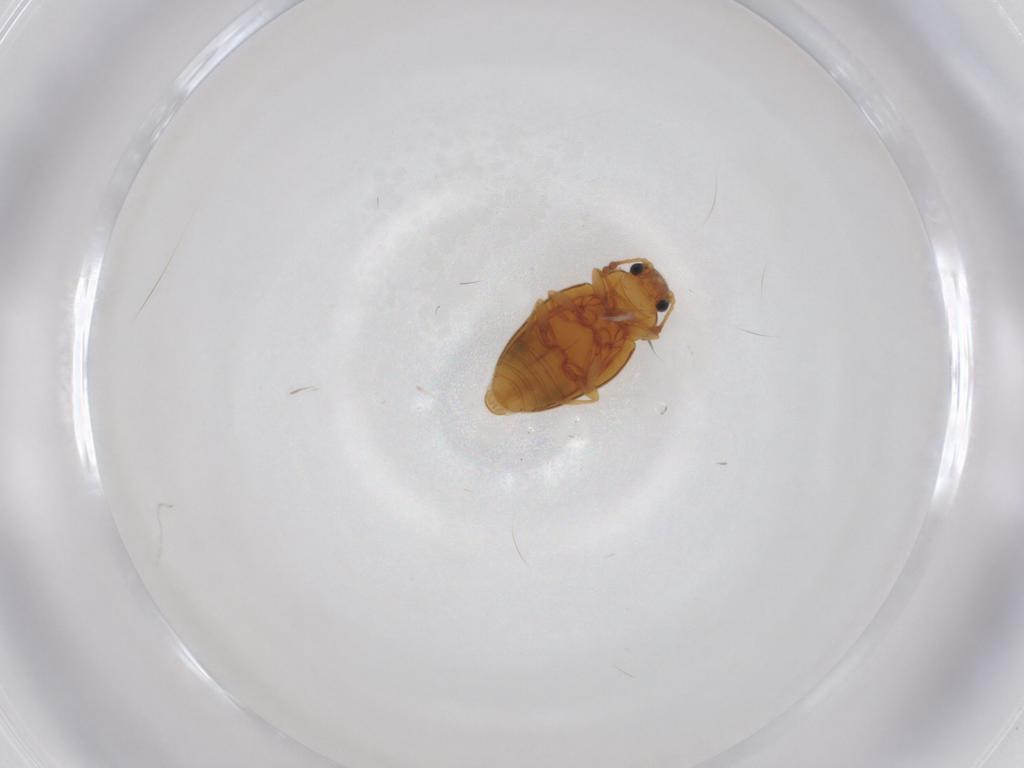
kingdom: Animalia
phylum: Arthropoda
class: Insecta
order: Coleoptera
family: Erotylidae
